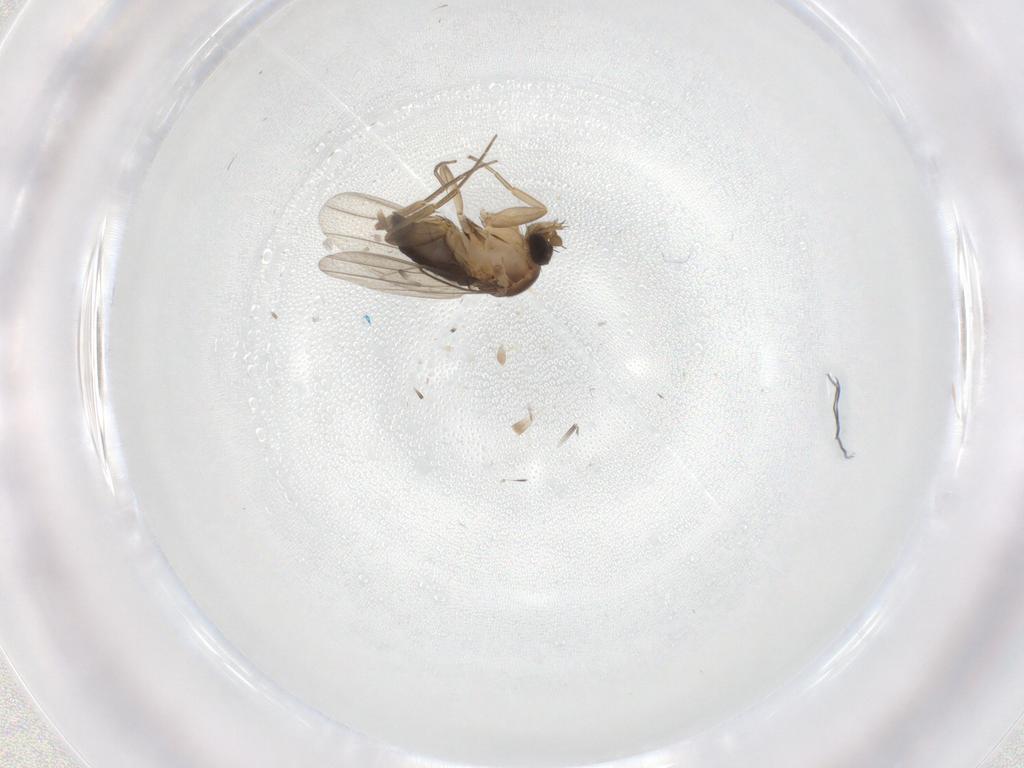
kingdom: Animalia
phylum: Arthropoda
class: Insecta
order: Diptera
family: Phoridae
